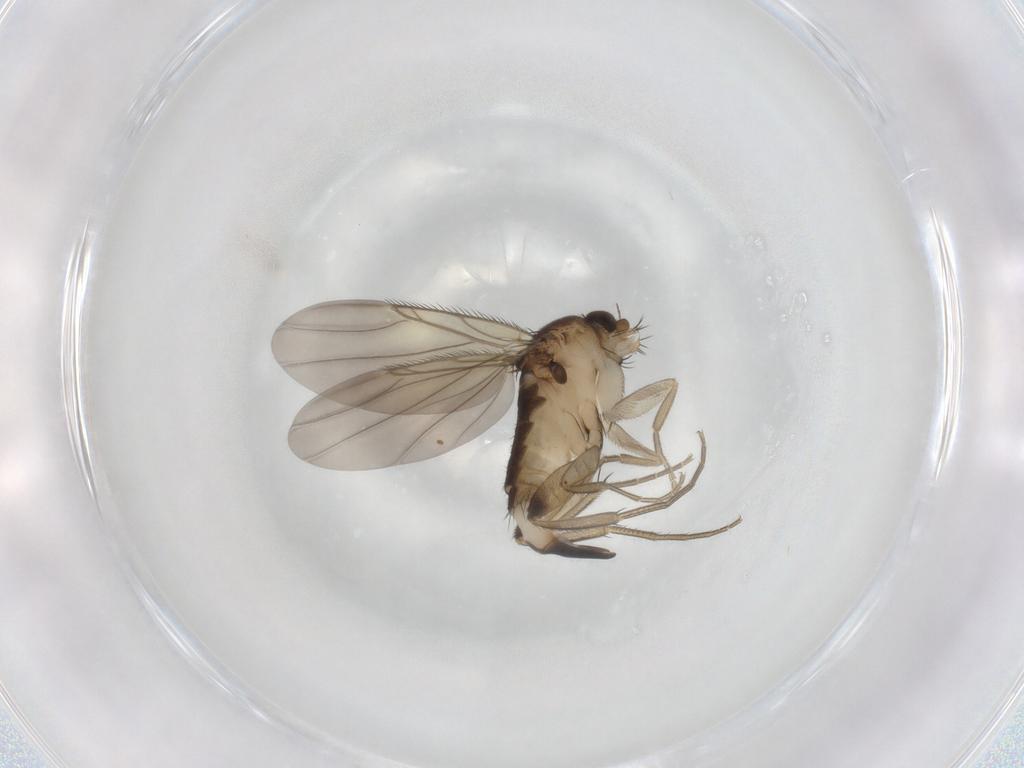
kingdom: Animalia
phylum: Arthropoda
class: Insecta
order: Diptera
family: Phoridae
